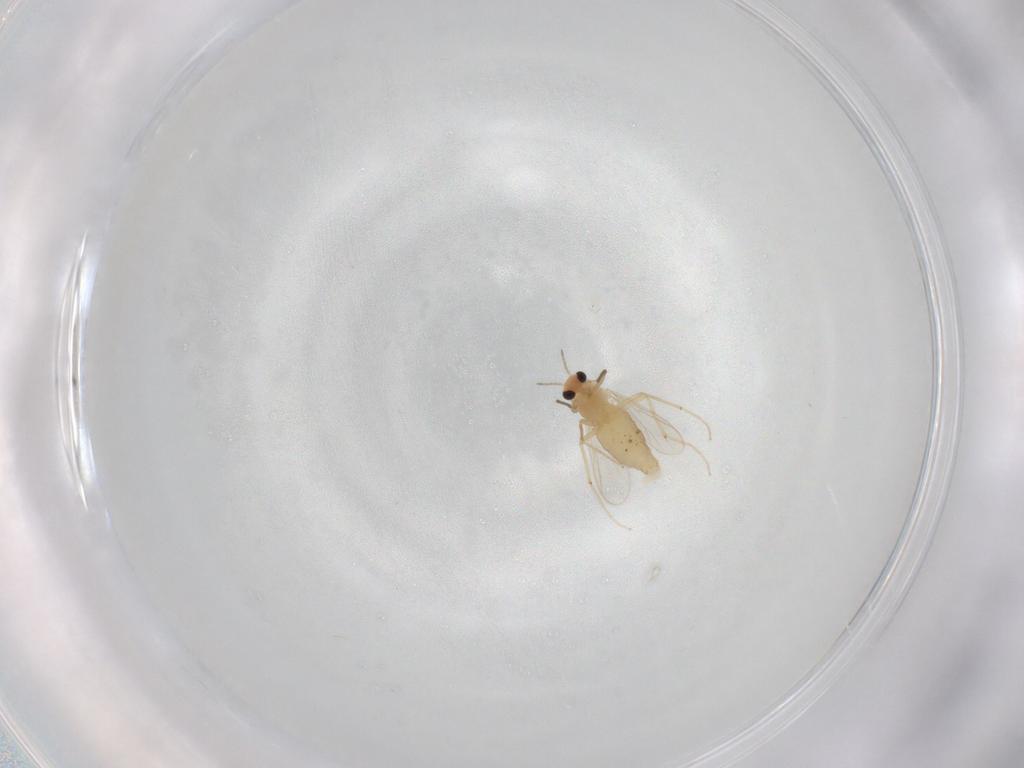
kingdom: Animalia
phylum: Arthropoda
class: Insecta
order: Diptera
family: Chironomidae
